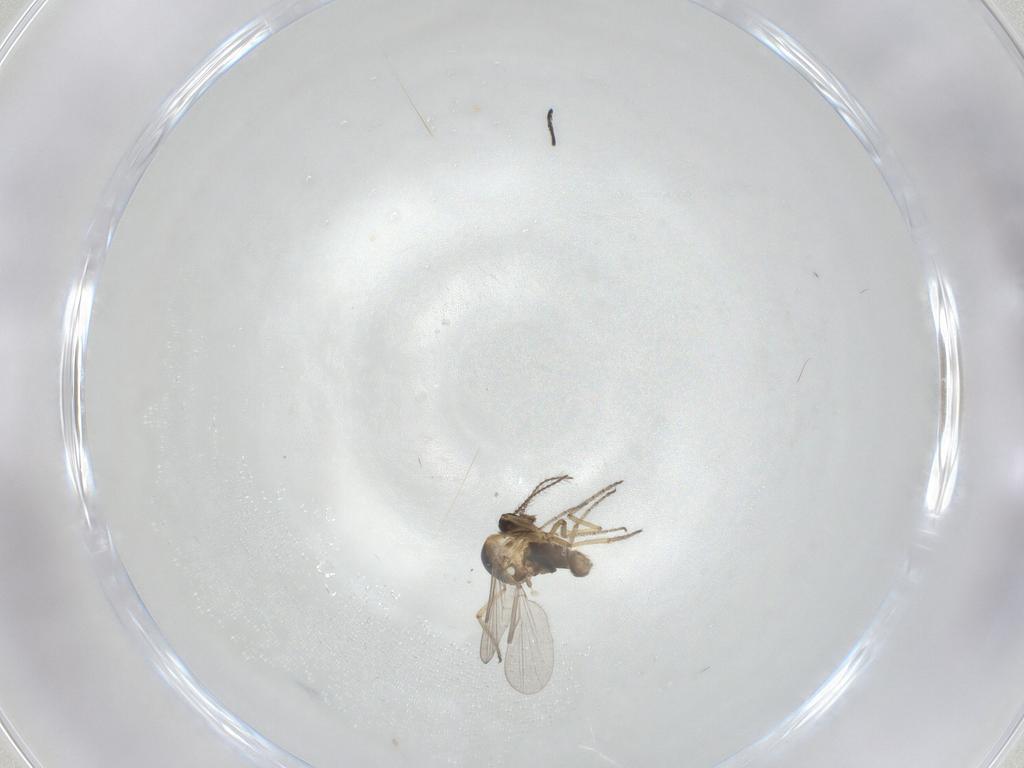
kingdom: Animalia
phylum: Arthropoda
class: Insecta
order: Diptera
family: Ceratopogonidae
